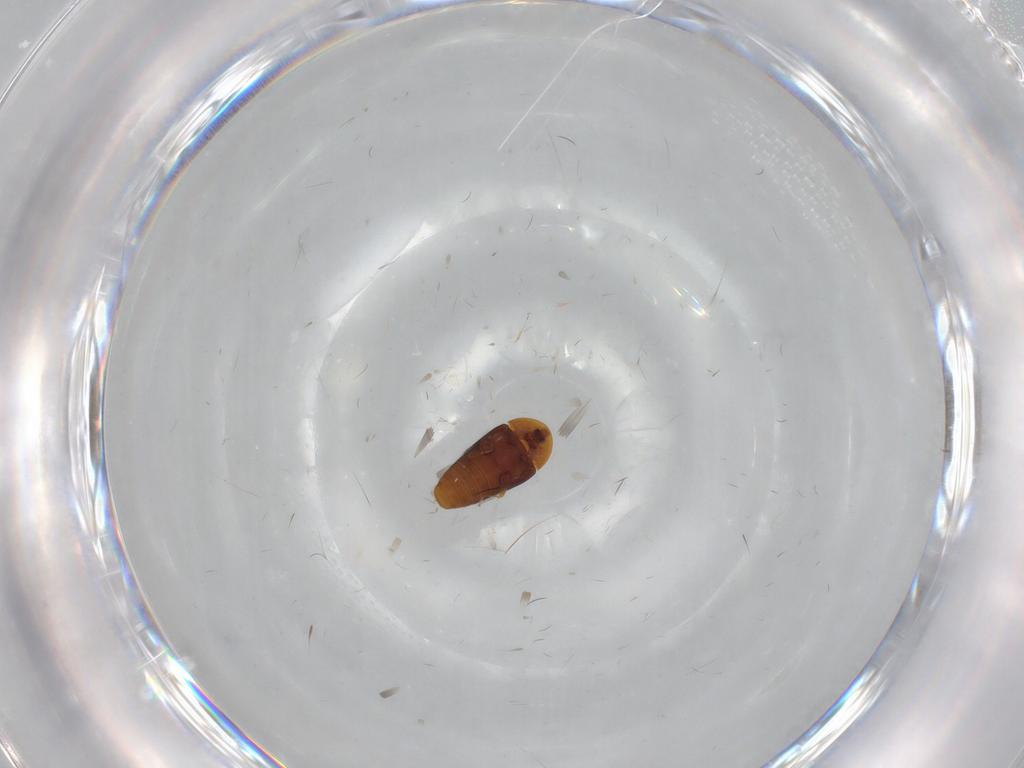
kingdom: Animalia
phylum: Arthropoda
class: Insecta
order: Coleoptera
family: Corylophidae
